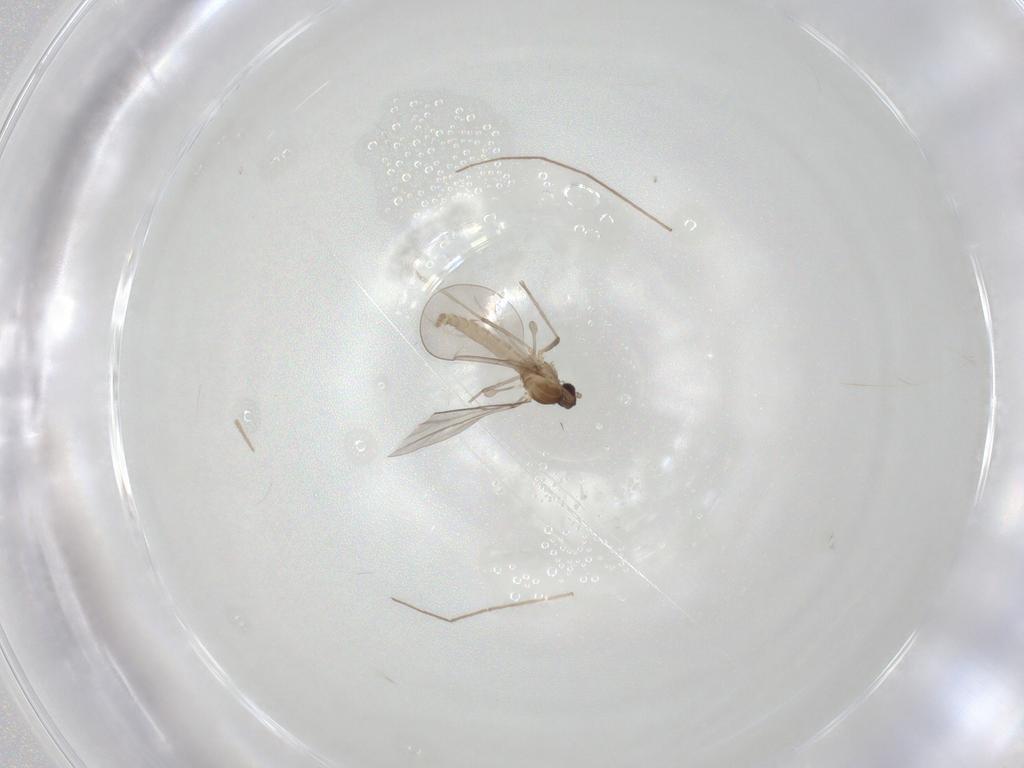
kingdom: Animalia
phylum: Arthropoda
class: Insecta
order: Diptera
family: Cecidomyiidae
